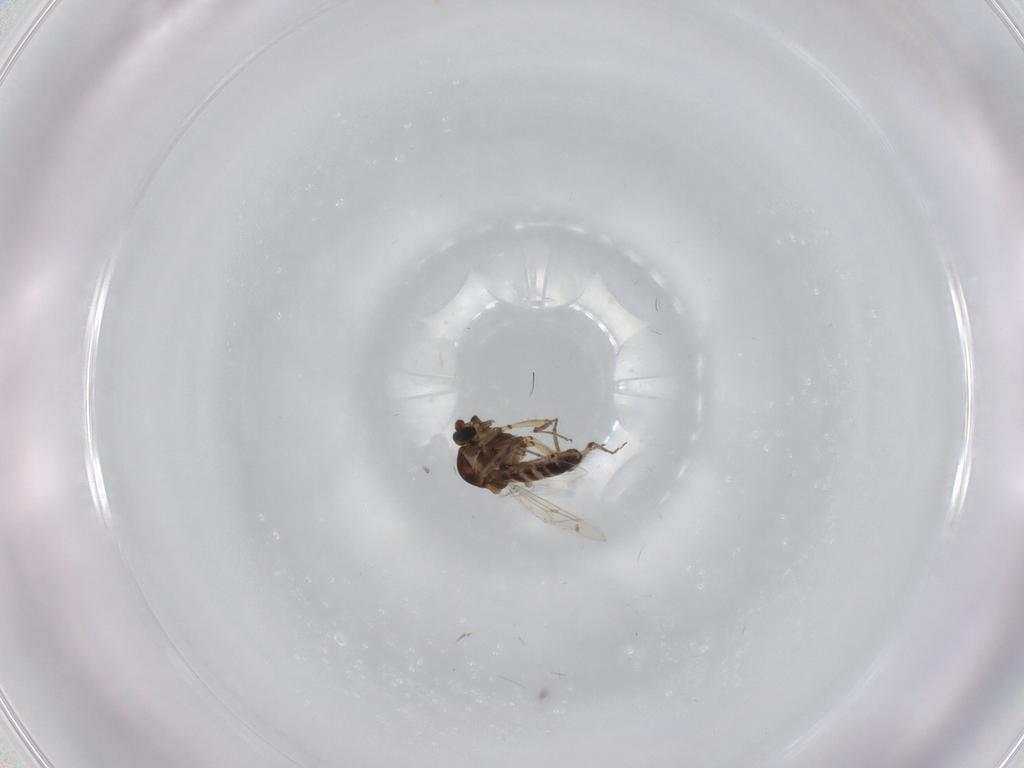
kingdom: Animalia
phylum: Arthropoda
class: Insecta
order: Diptera
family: Ceratopogonidae
